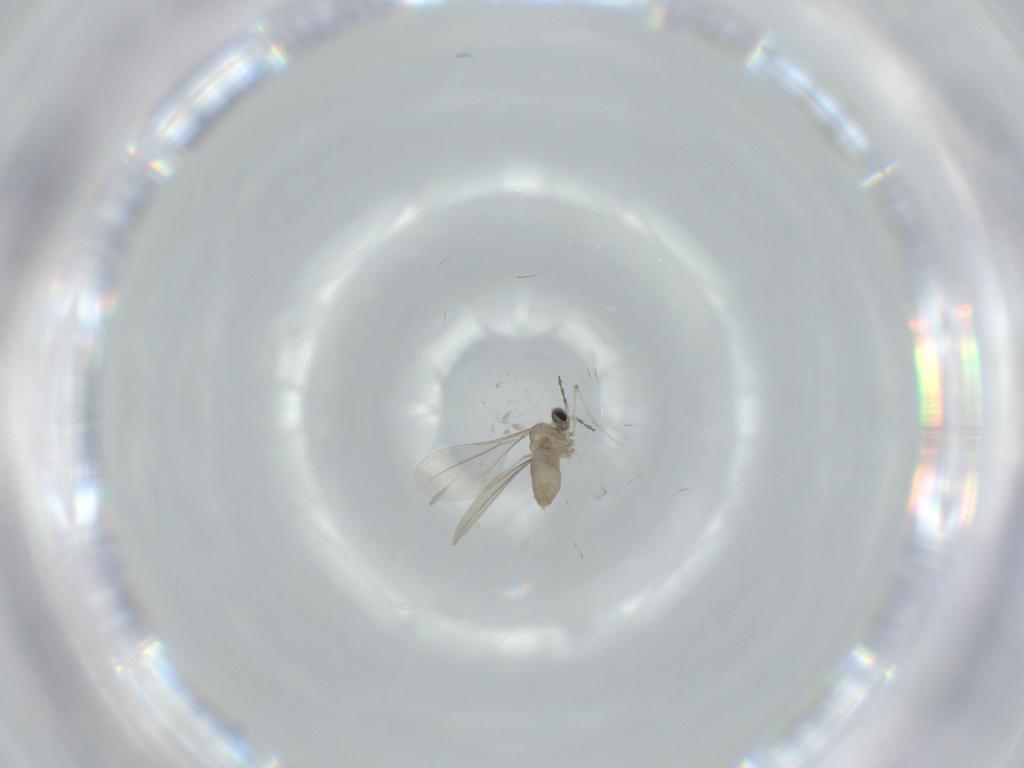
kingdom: Animalia
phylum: Arthropoda
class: Insecta
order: Diptera
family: Cecidomyiidae
